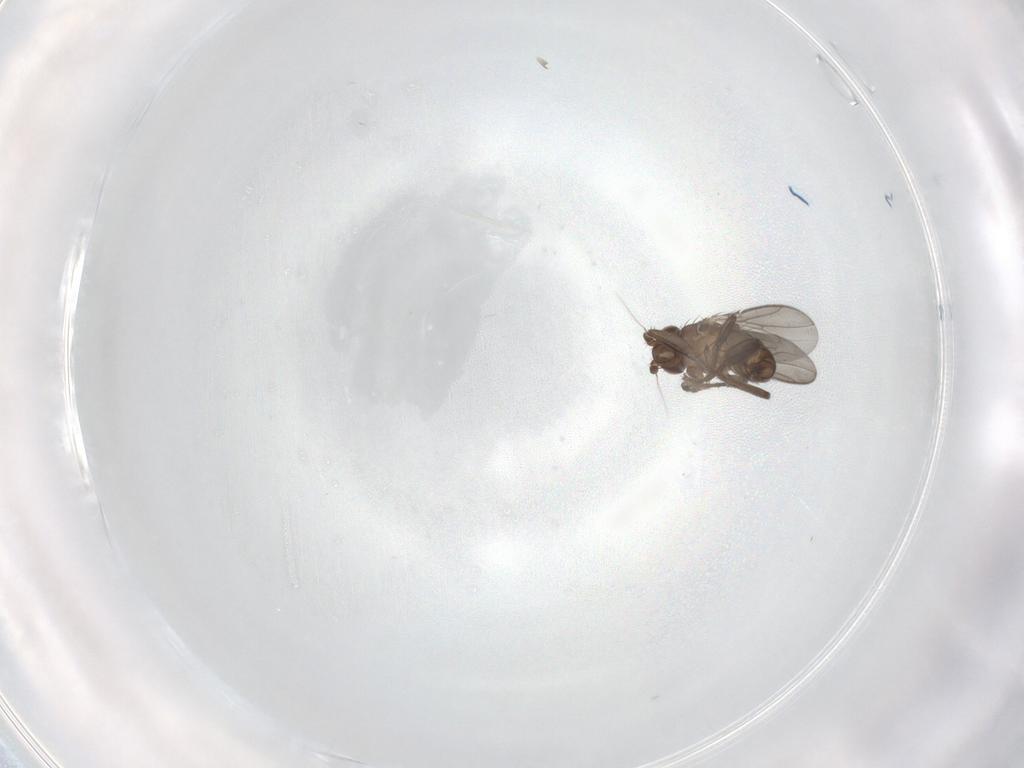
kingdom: Animalia
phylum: Arthropoda
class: Insecta
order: Diptera
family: Sphaeroceridae
